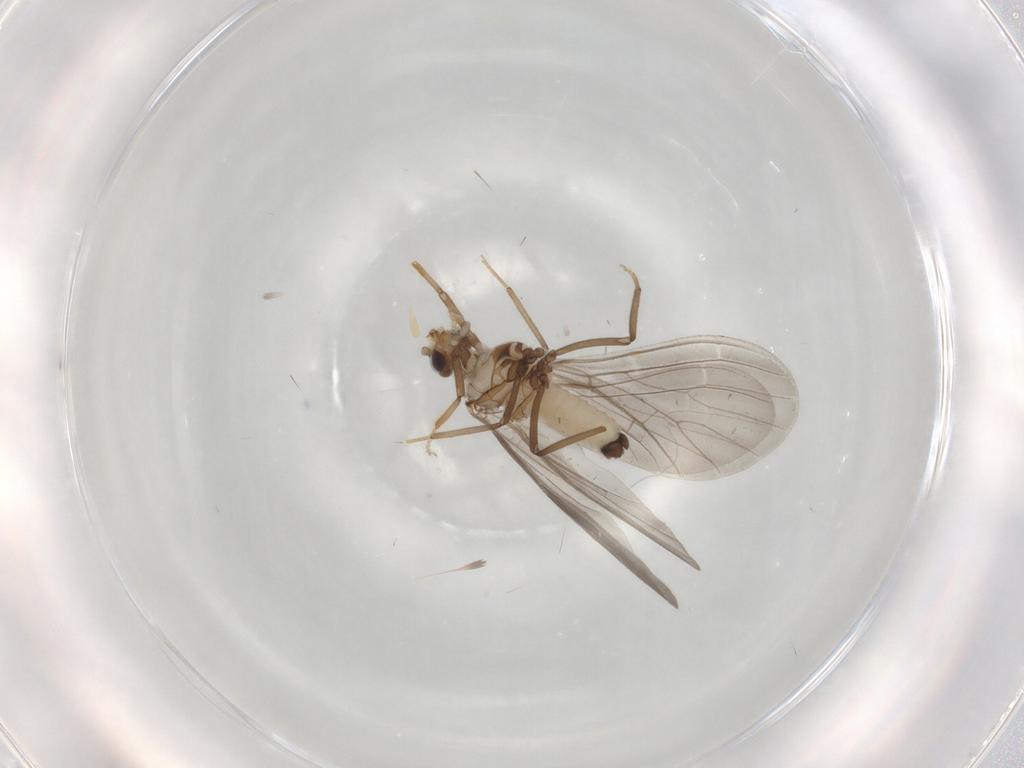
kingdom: Animalia
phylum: Arthropoda
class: Insecta
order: Neuroptera
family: Coniopterygidae
